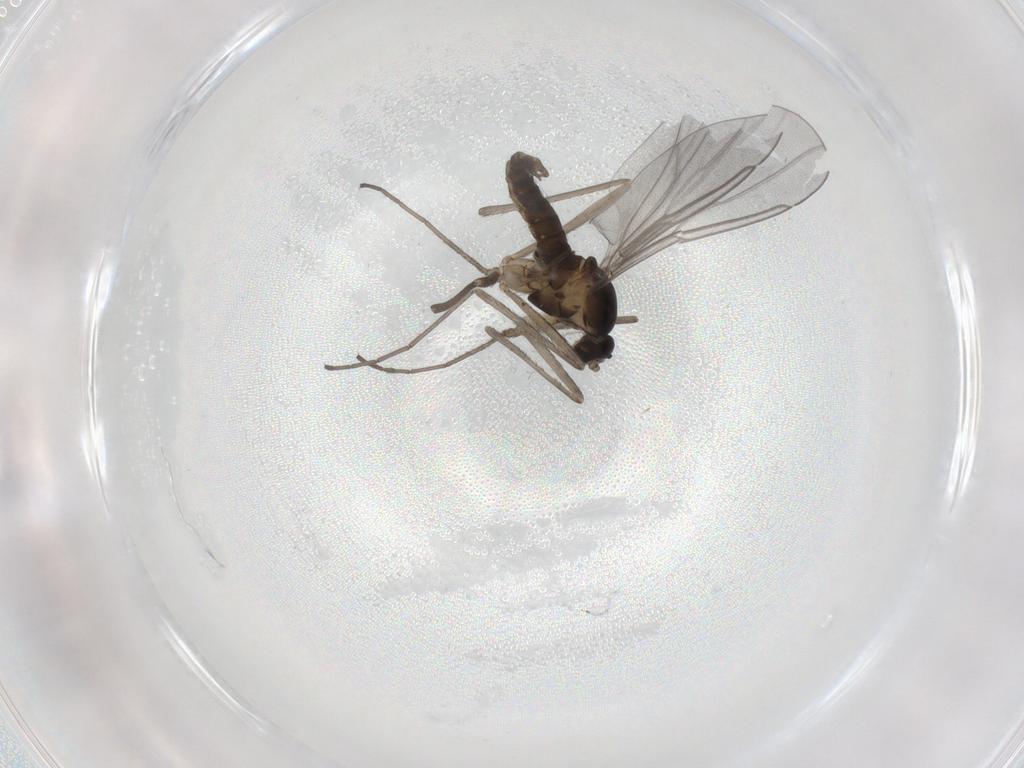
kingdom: Animalia
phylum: Arthropoda
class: Insecta
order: Diptera
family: Cecidomyiidae
